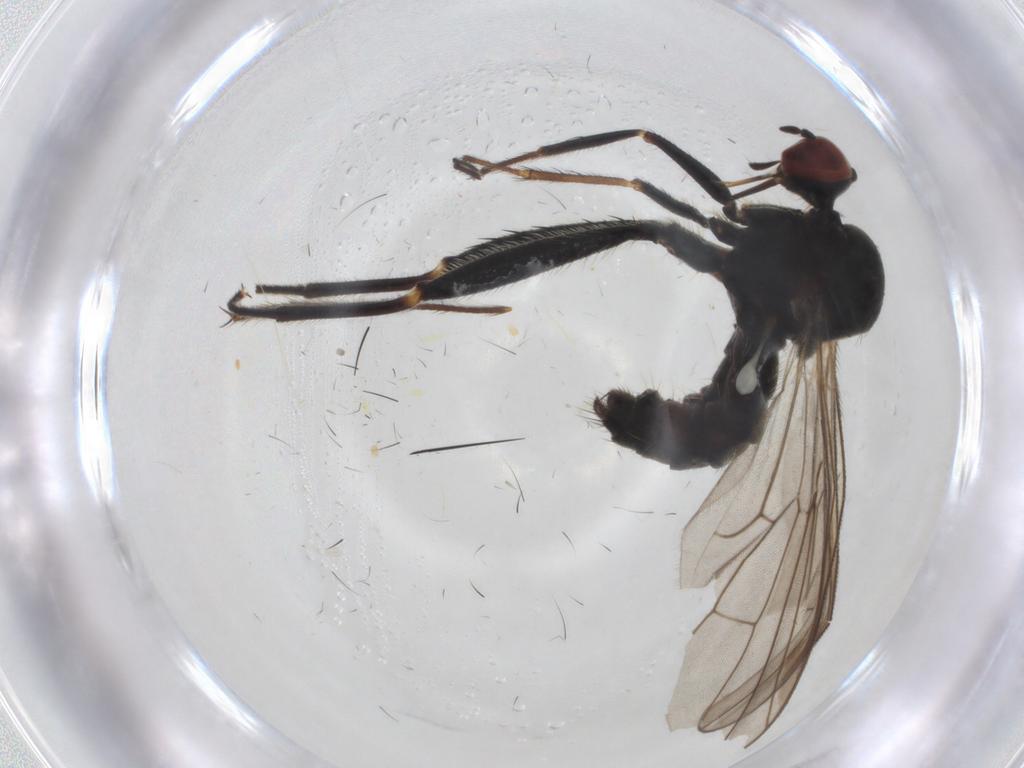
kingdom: Animalia
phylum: Arthropoda
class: Insecta
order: Diptera
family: Hybotidae
